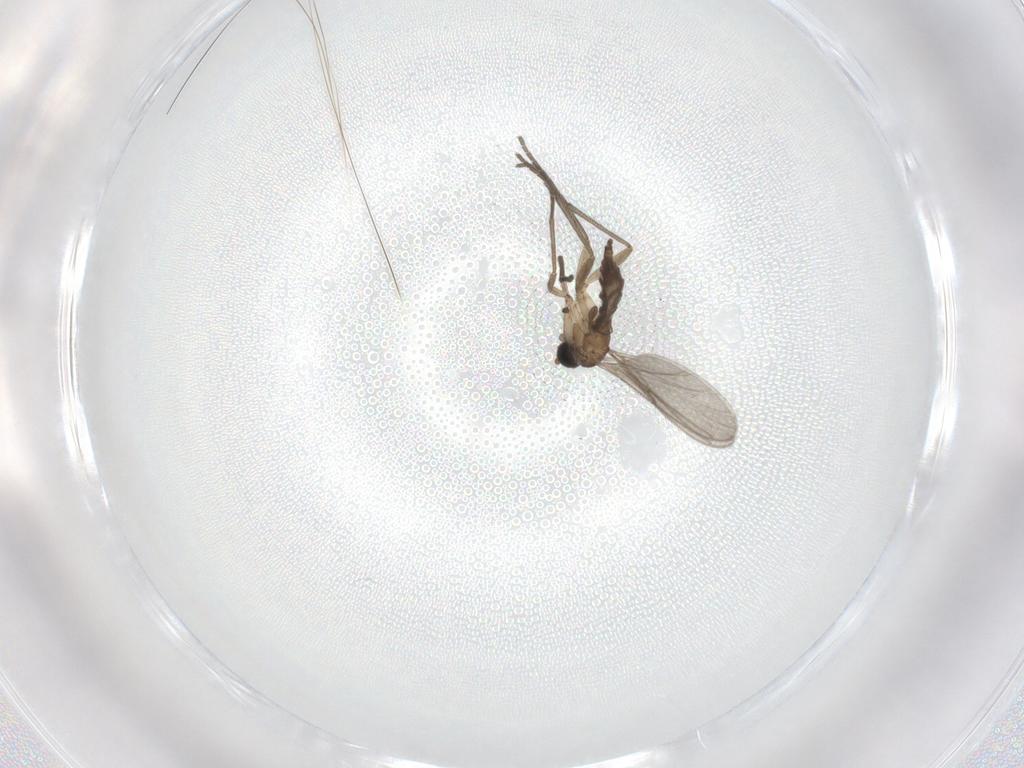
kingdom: Animalia
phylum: Arthropoda
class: Insecta
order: Diptera
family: Sciaridae
